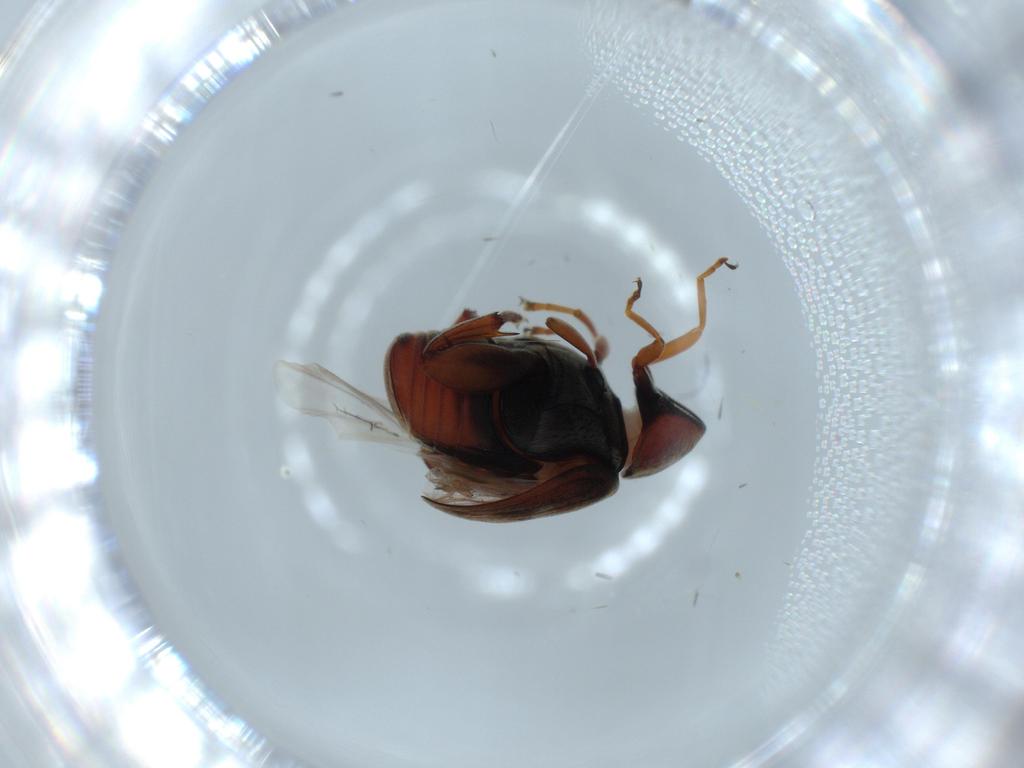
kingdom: Animalia
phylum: Arthropoda
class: Insecta
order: Coleoptera
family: Chrysomelidae
